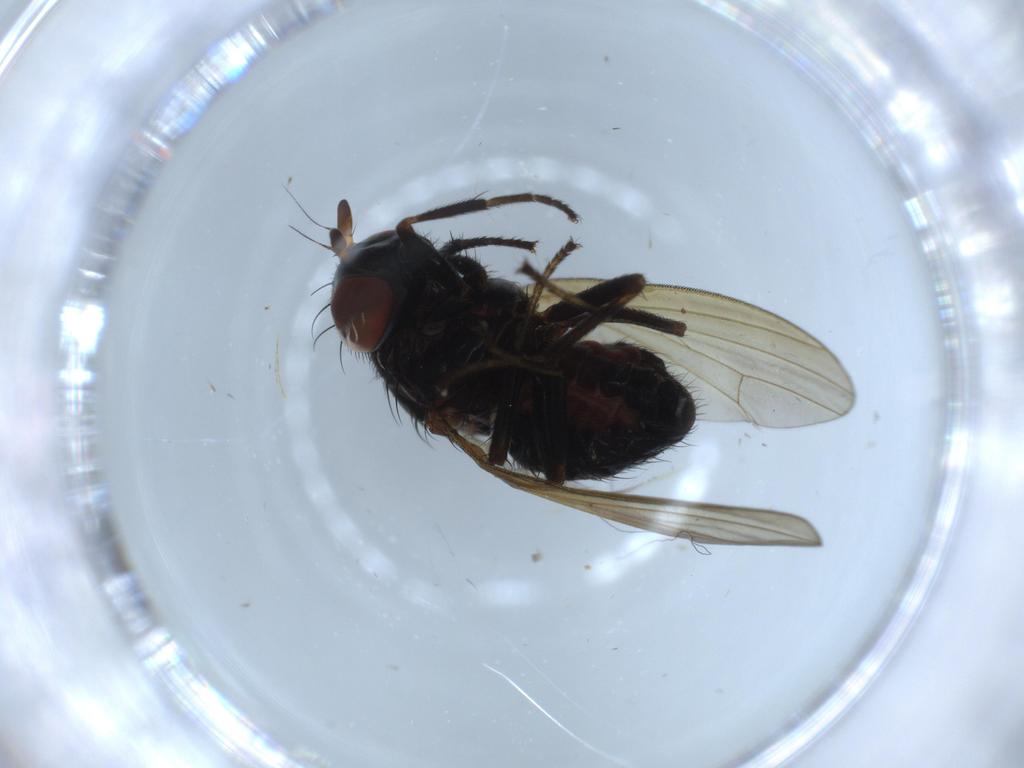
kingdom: Animalia
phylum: Arthropoda
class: Insecta
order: Diptera
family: Lauxaniidae
